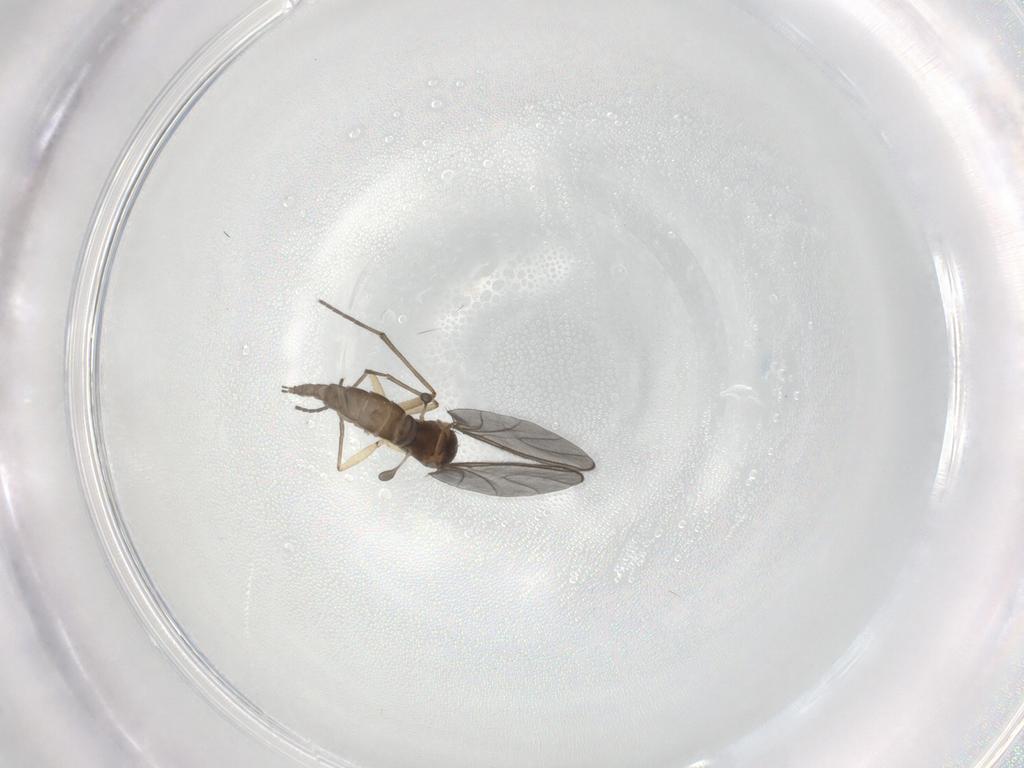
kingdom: Animalia
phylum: Arthropoda
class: Insecta
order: Diptera
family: Sciaridae
